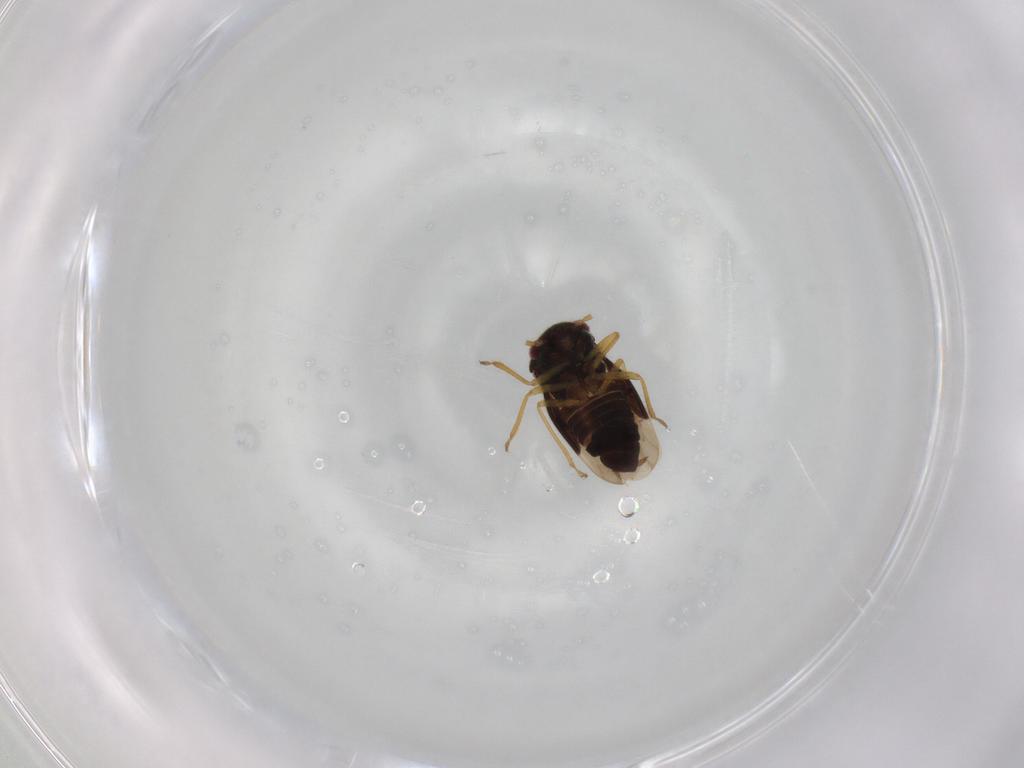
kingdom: Animalia
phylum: Arthropoda
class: Insecta
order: Hemiptera
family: Schizopteridae
